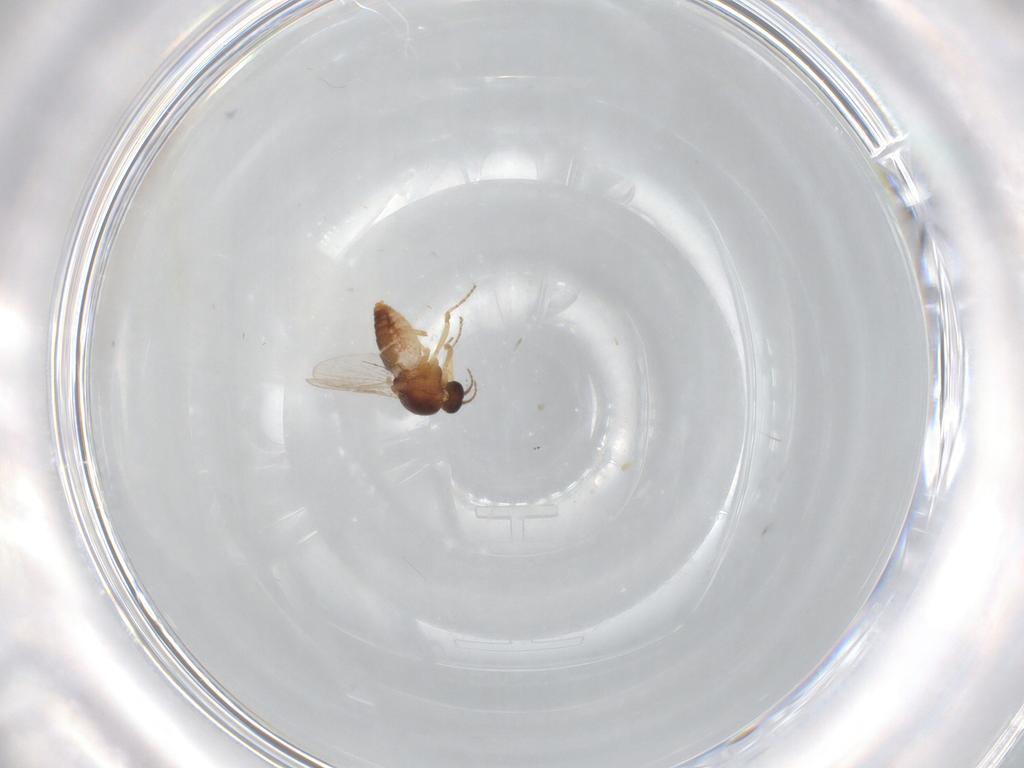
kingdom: Animalia
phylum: Arthropoda
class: Insecta
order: Diptera
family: Ceratopogonidae
